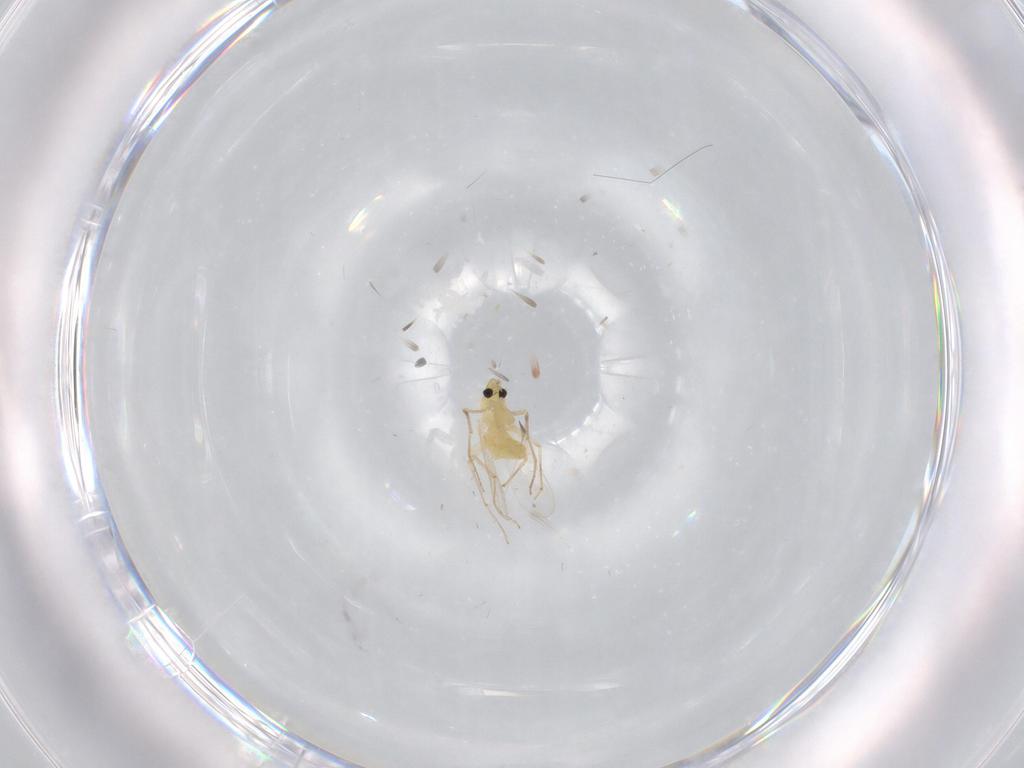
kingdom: Animalia
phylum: Arthropoda
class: Insecta
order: Diptera
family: Chironomidae
